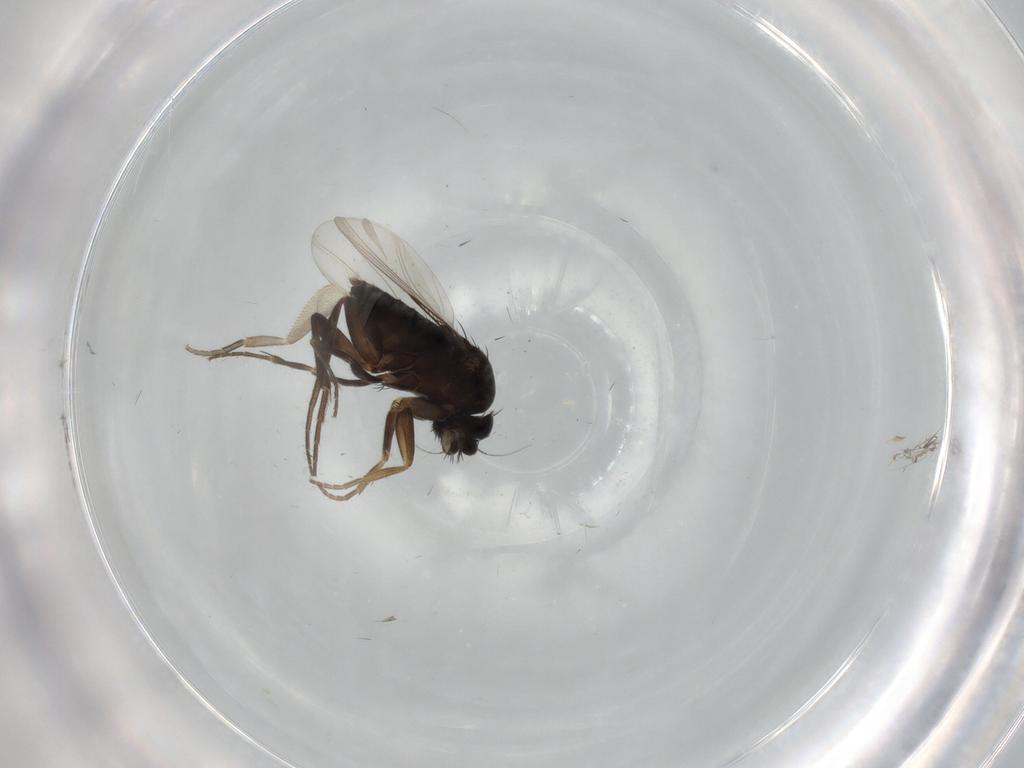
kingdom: Animalia
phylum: Arthropoda
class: Insecta
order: Diptera
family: Phoridae
